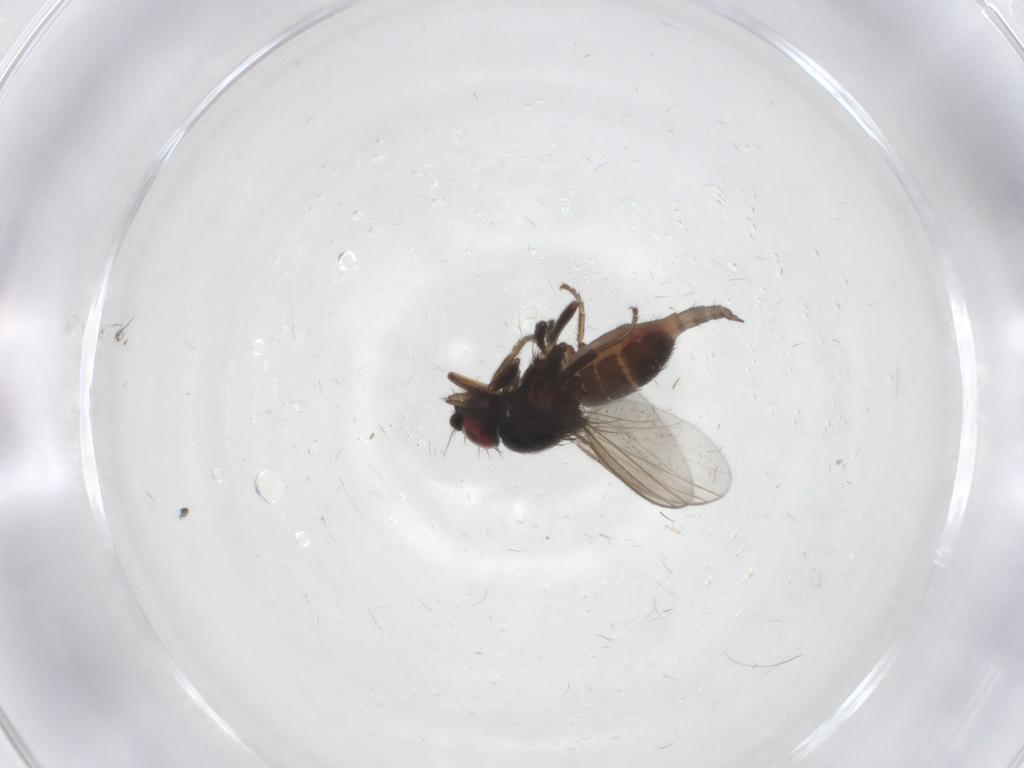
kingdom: Animalia
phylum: Arthropoda
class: Insecta
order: Diptera
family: Milichiidae
